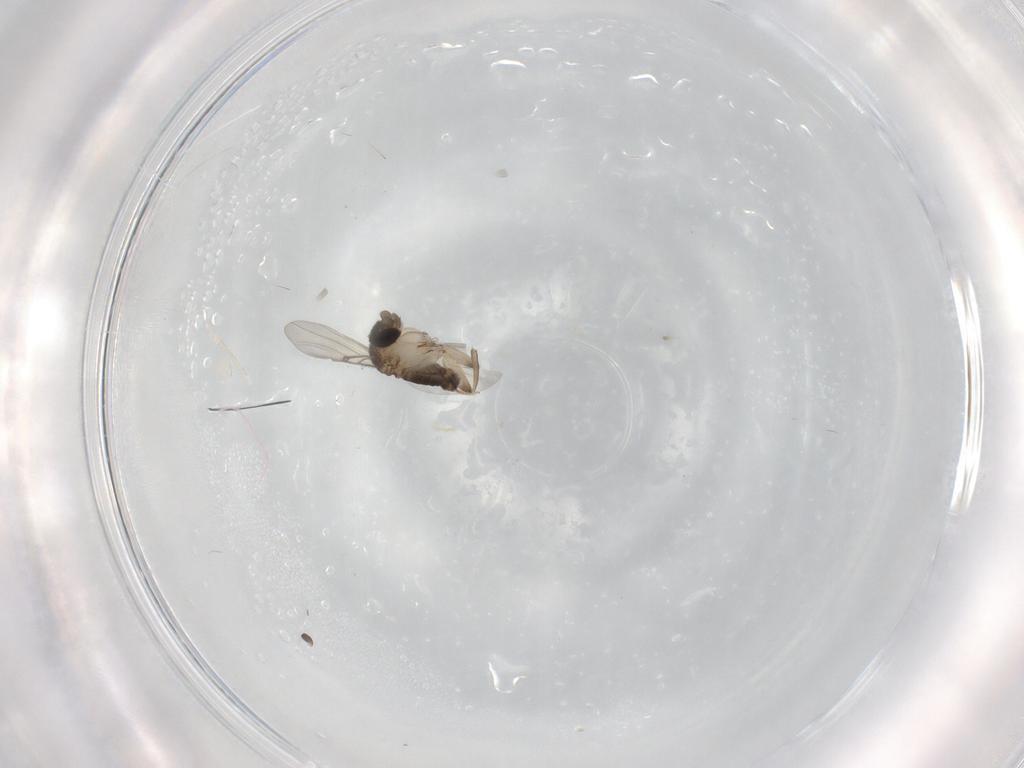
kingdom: Animalia
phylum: Arthropoda
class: Insecta
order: Diptera
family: Phoridae
